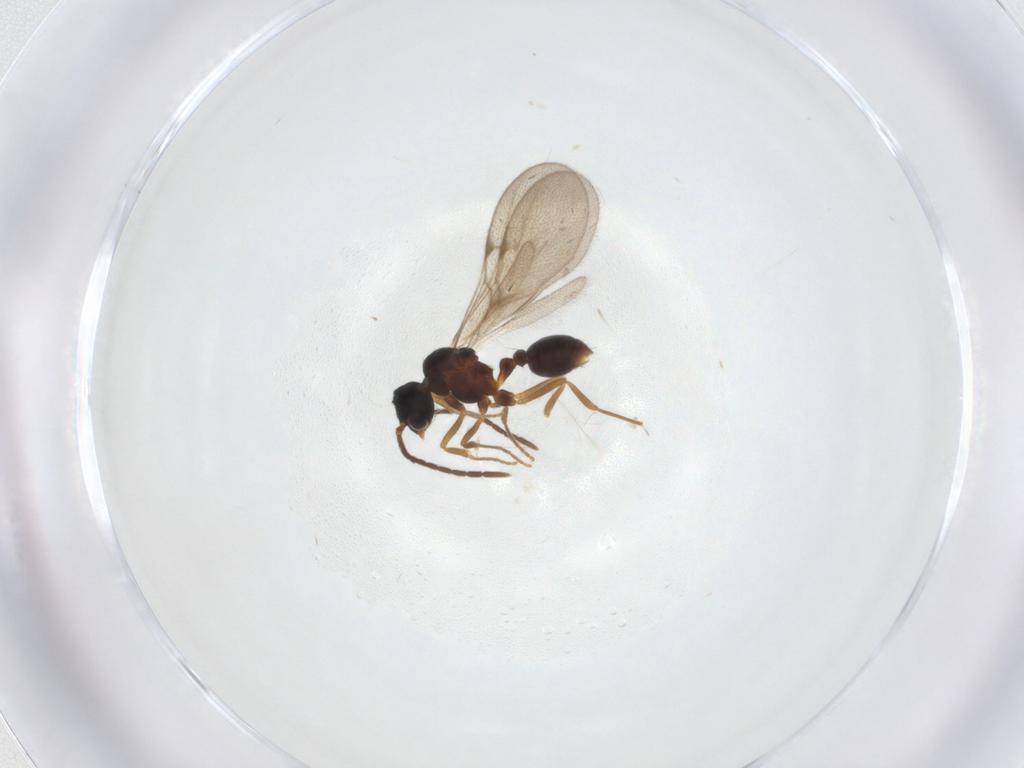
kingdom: Animalia
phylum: Arthropoda
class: Insecta
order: Hymenoptera
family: Formicidae
